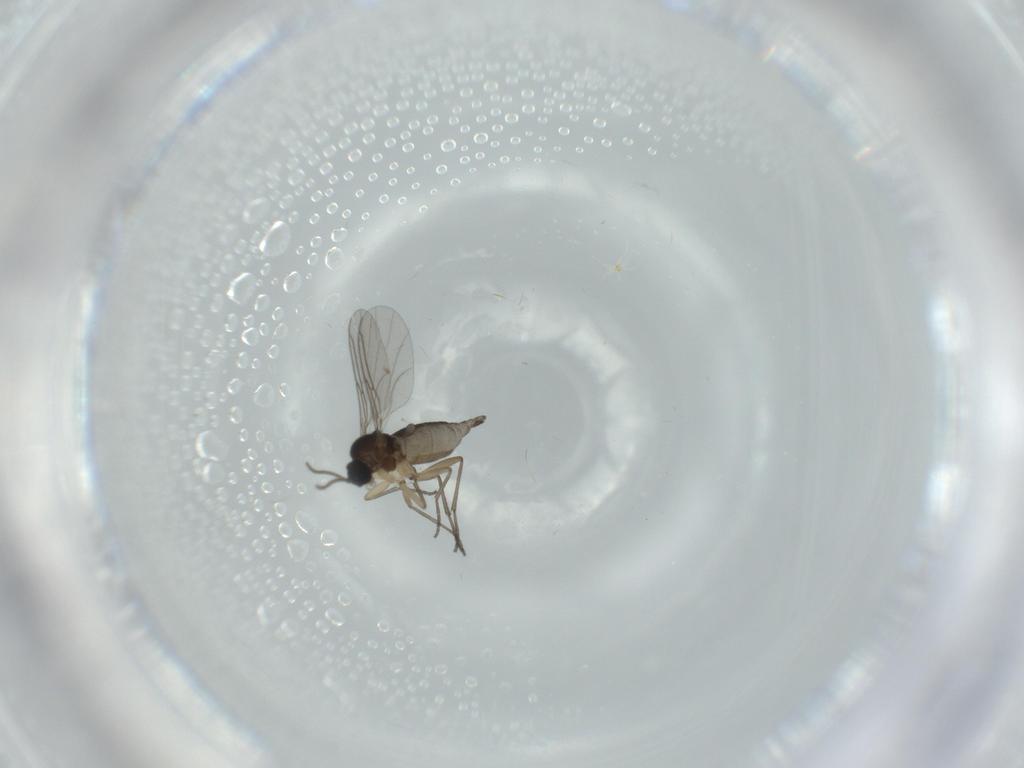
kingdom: Animalia
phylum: Arthropoda
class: Insecta
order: Diptera
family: Sciaridae
